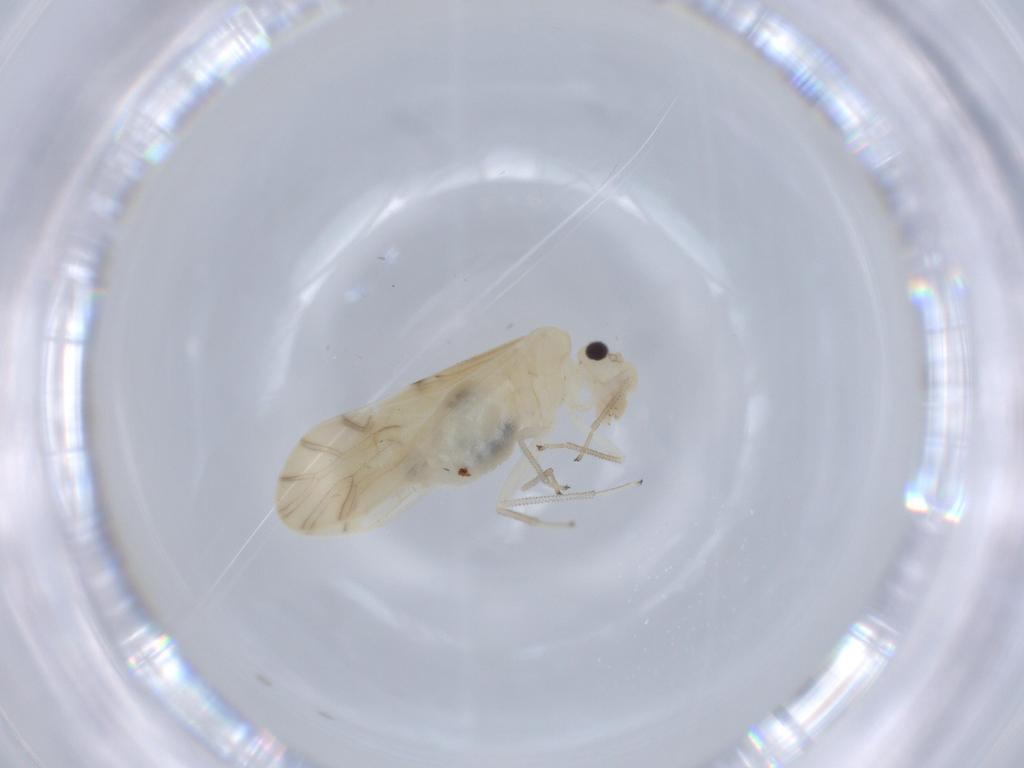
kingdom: Animalia
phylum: Arthropoda
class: Insecta
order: Psocodea
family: Caeciliusidae
